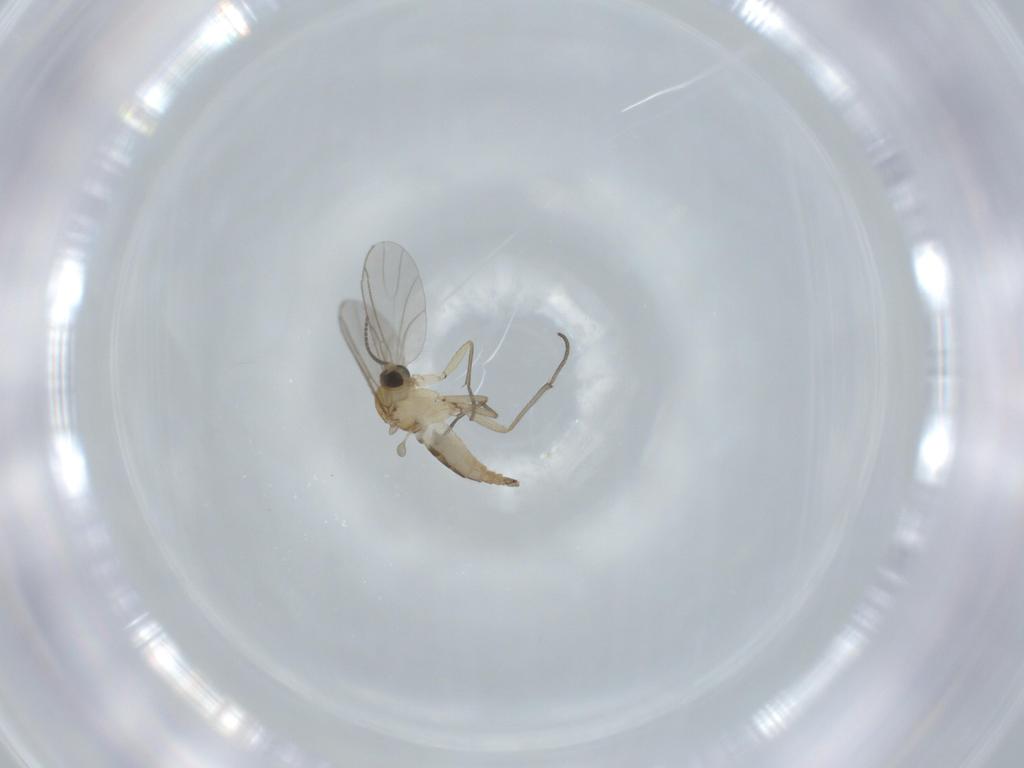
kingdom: Animalia
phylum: Arthropoda
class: Insecta
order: Diptera
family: Sciaridae
